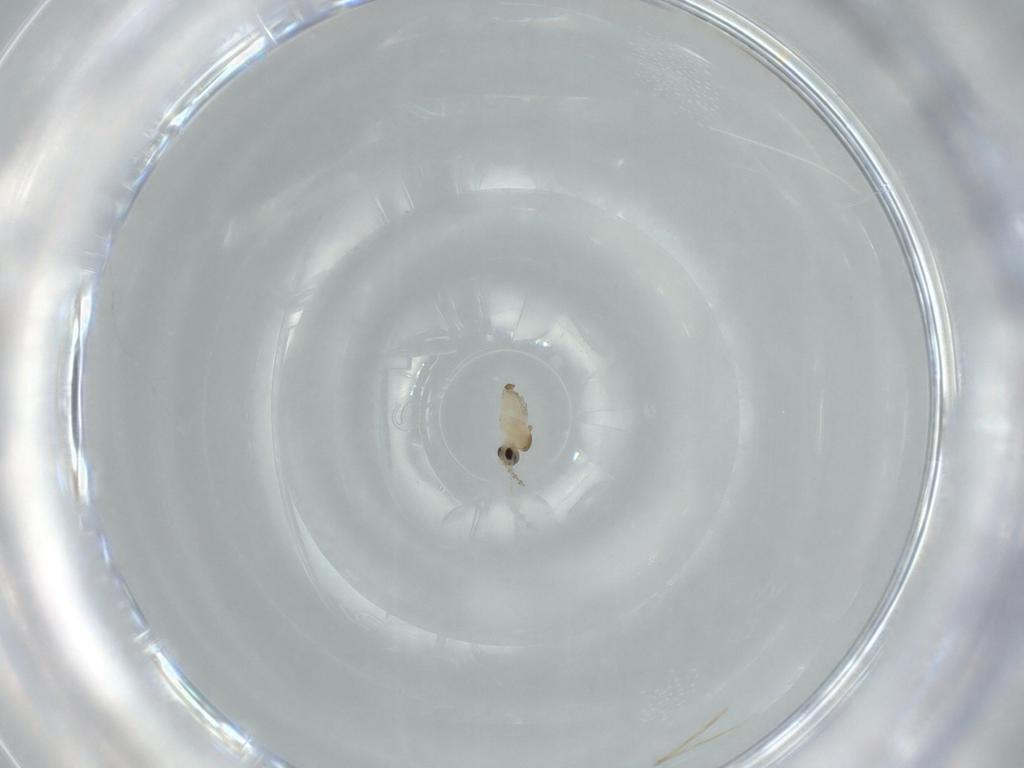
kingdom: Animalia
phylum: Arthropoda
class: Insecta
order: Diptera
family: Cecidomyiidae
